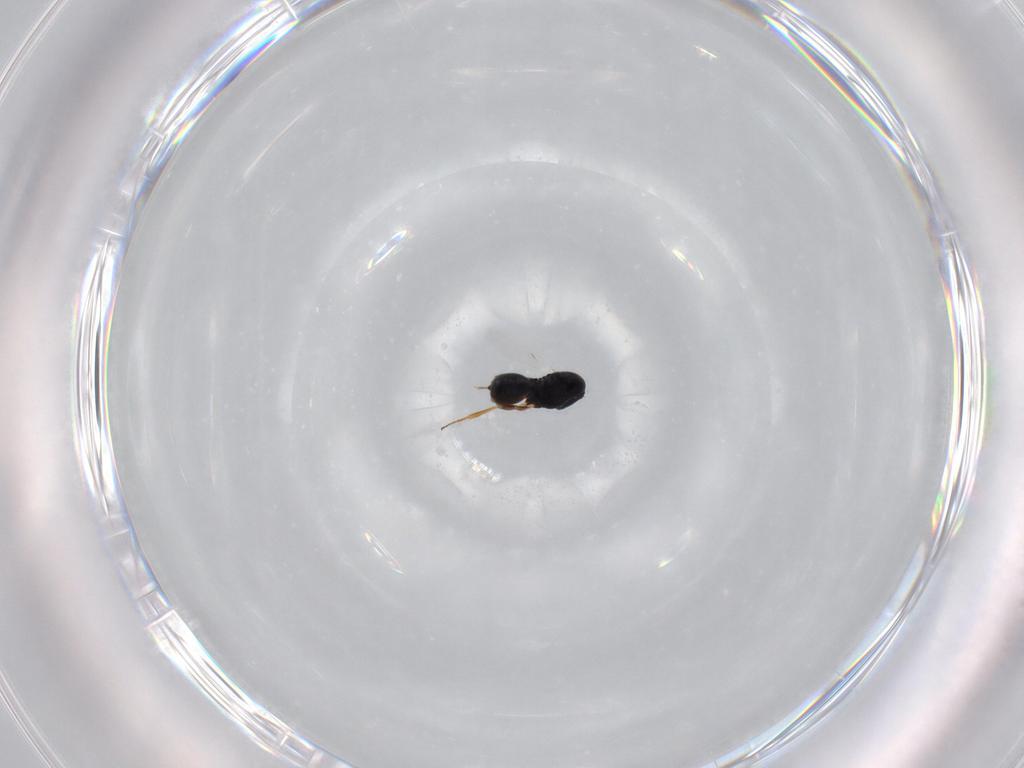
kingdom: Animalia
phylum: Arthropoda
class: Insecta
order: Hymenoptera
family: Scelionidae
